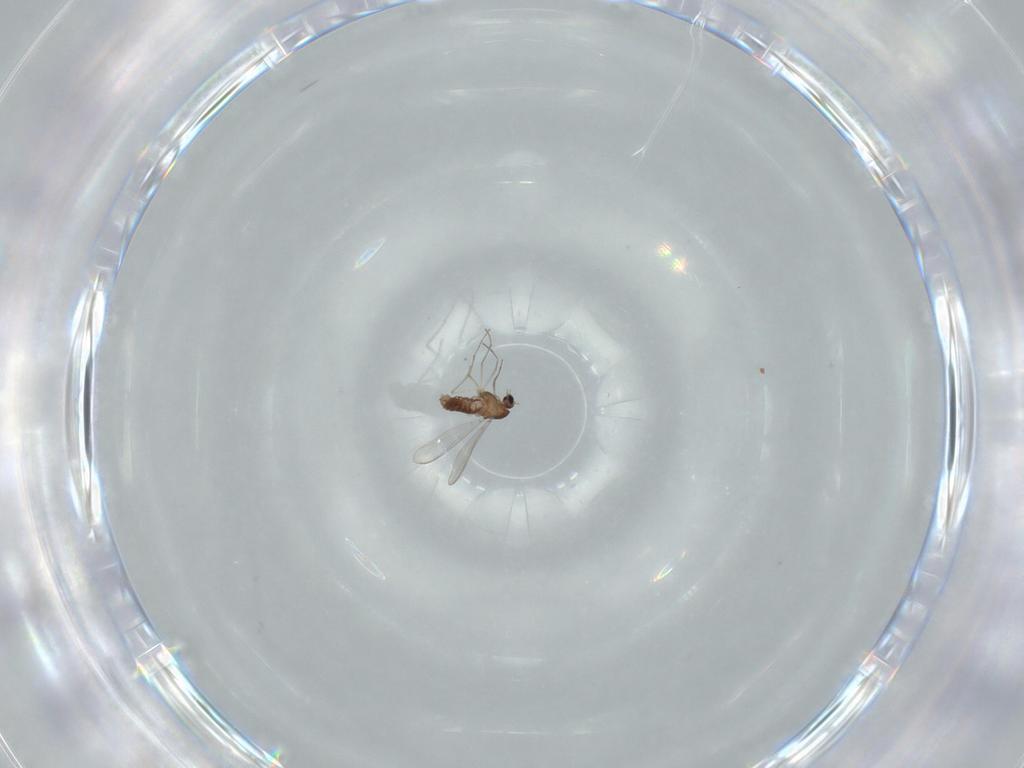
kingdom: Animalia
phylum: Arthropoda
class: Insecta
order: Diptera
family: Chironomidae
